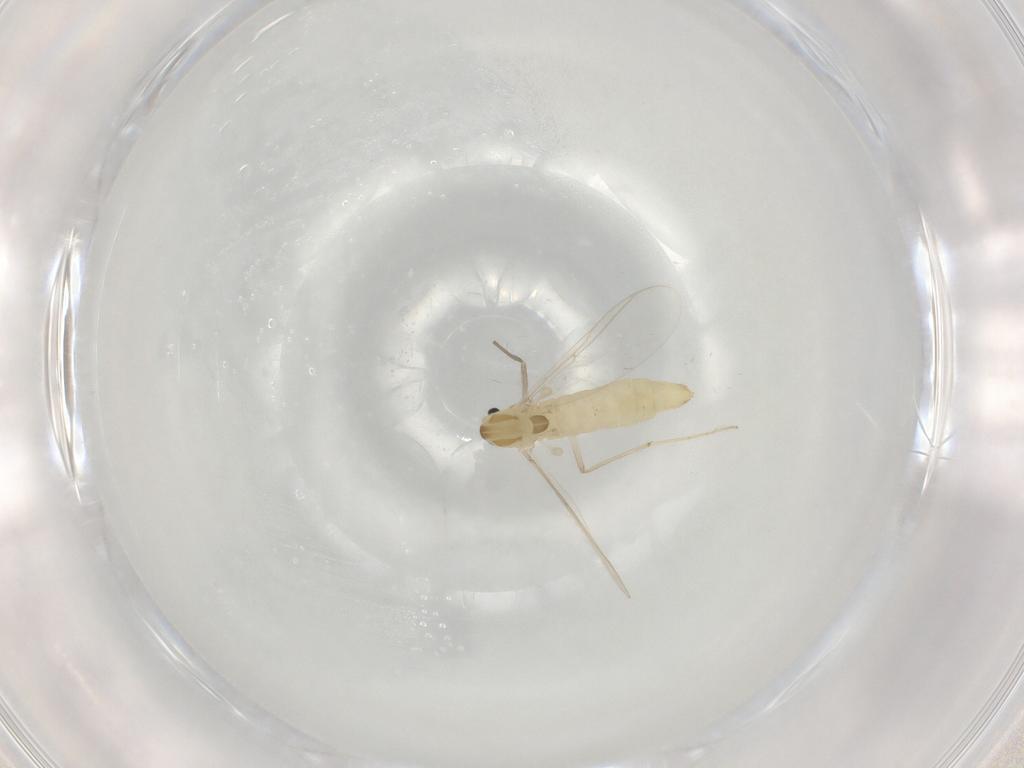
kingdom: Animalia
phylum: Arthropoda
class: Insecta
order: Diptera
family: Chironomidae
